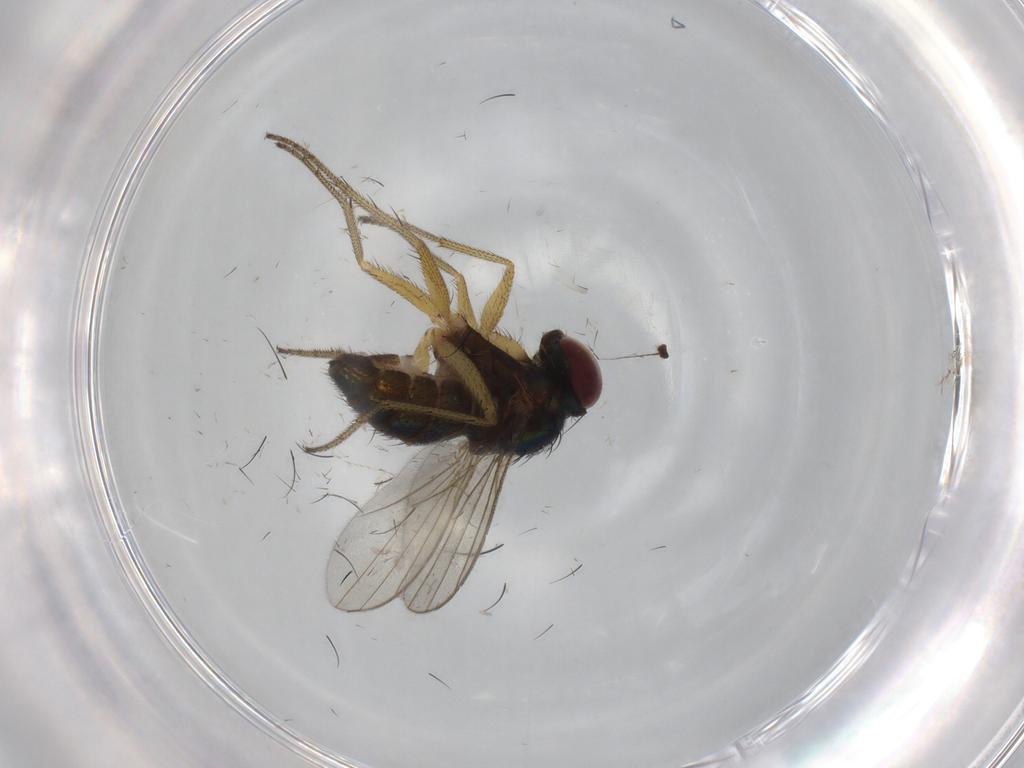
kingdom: Animalia
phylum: Arthropoda
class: Insecta
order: Diptera
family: Dolichopodidae
